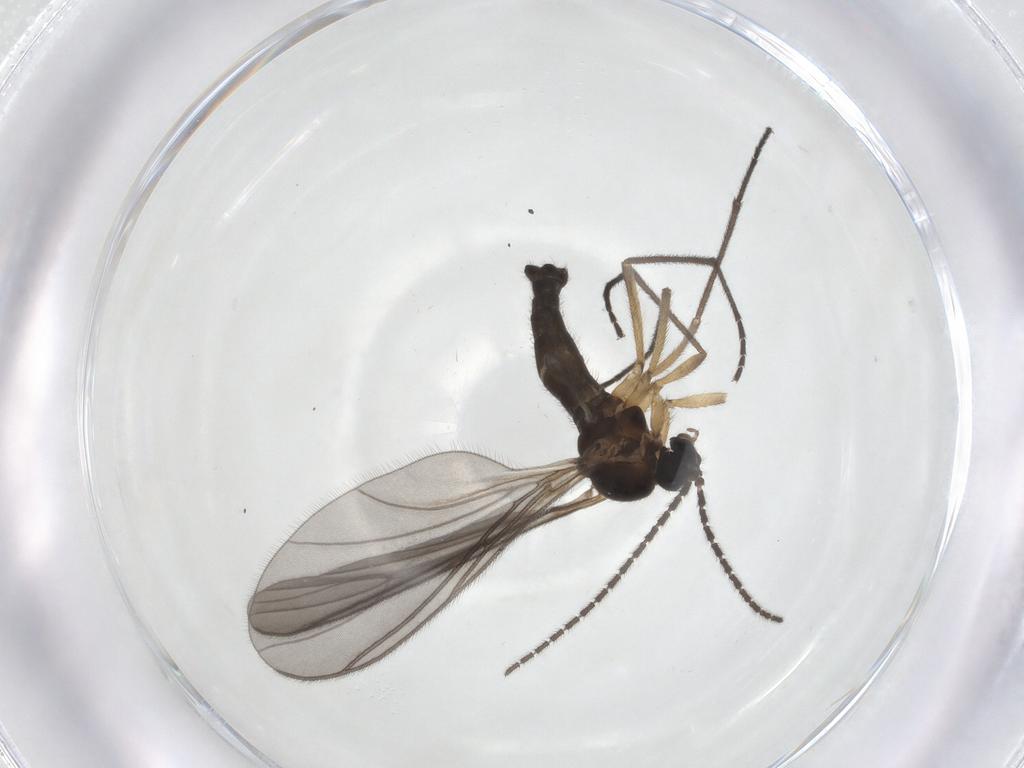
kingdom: Animalia
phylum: Arthropoda
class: Insecta
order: Diptera
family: Sciaridae
